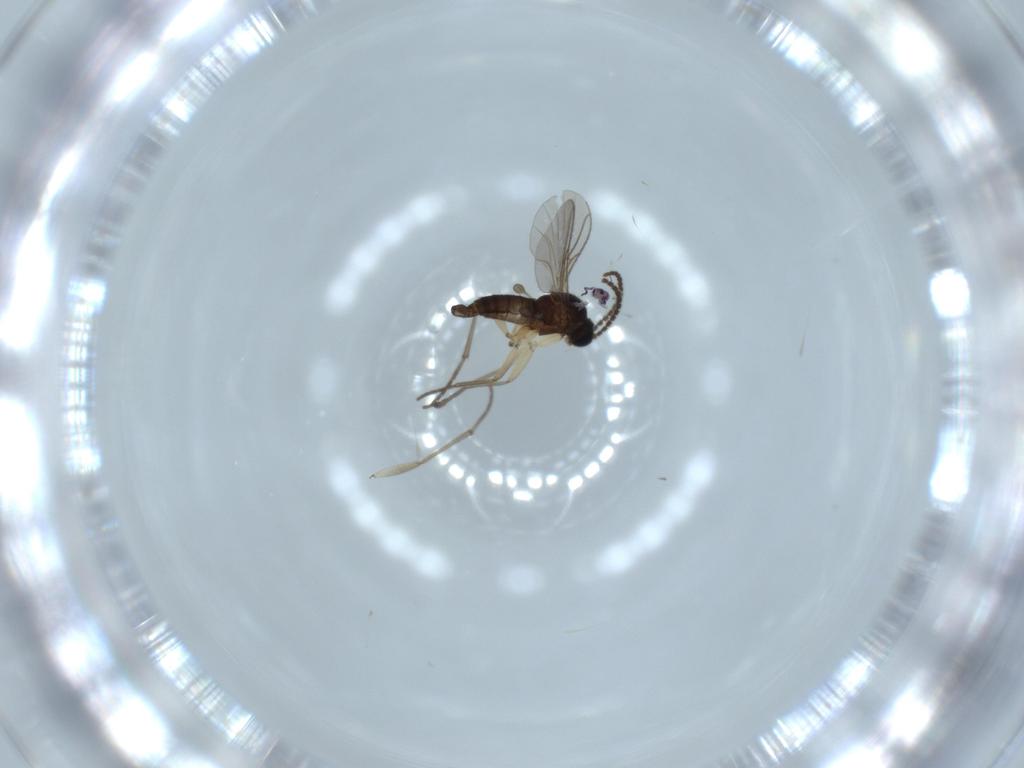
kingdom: Animalia
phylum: Arthropoda
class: Insecta
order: Diptera
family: Sciaridae
